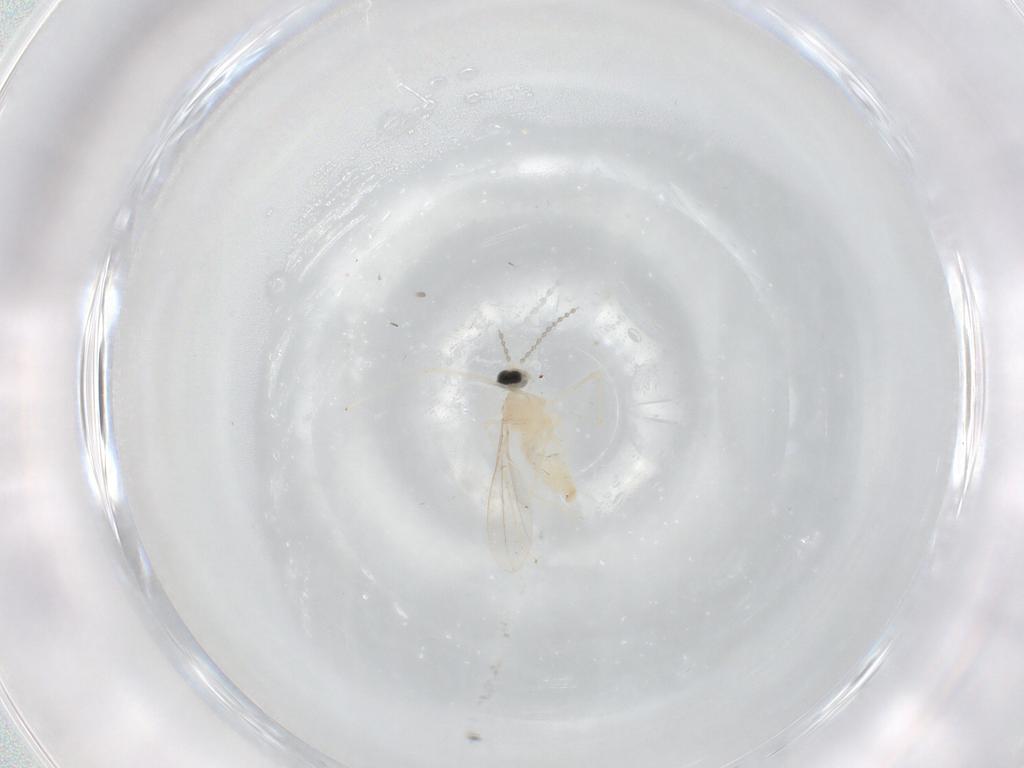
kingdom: Animalia
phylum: Arthropoda
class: Insecta
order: Diptera
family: Cecidomyiidae
